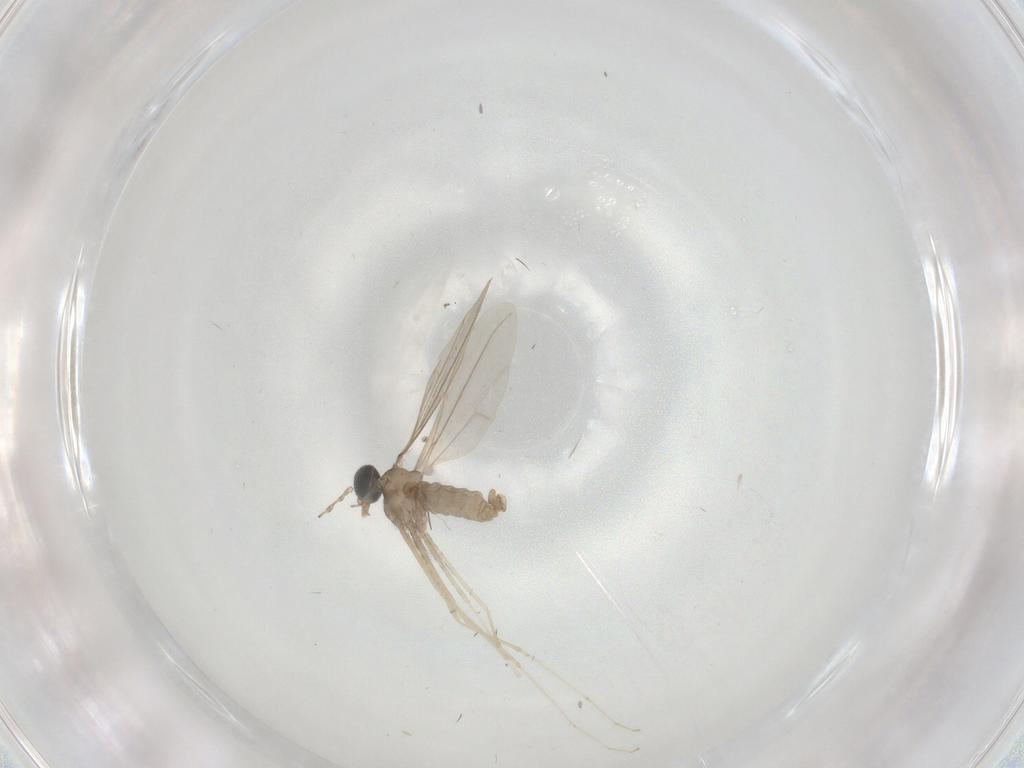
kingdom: Animalia
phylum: Arthropoda
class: Insecta
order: Diptera
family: Cecidomyiidae
